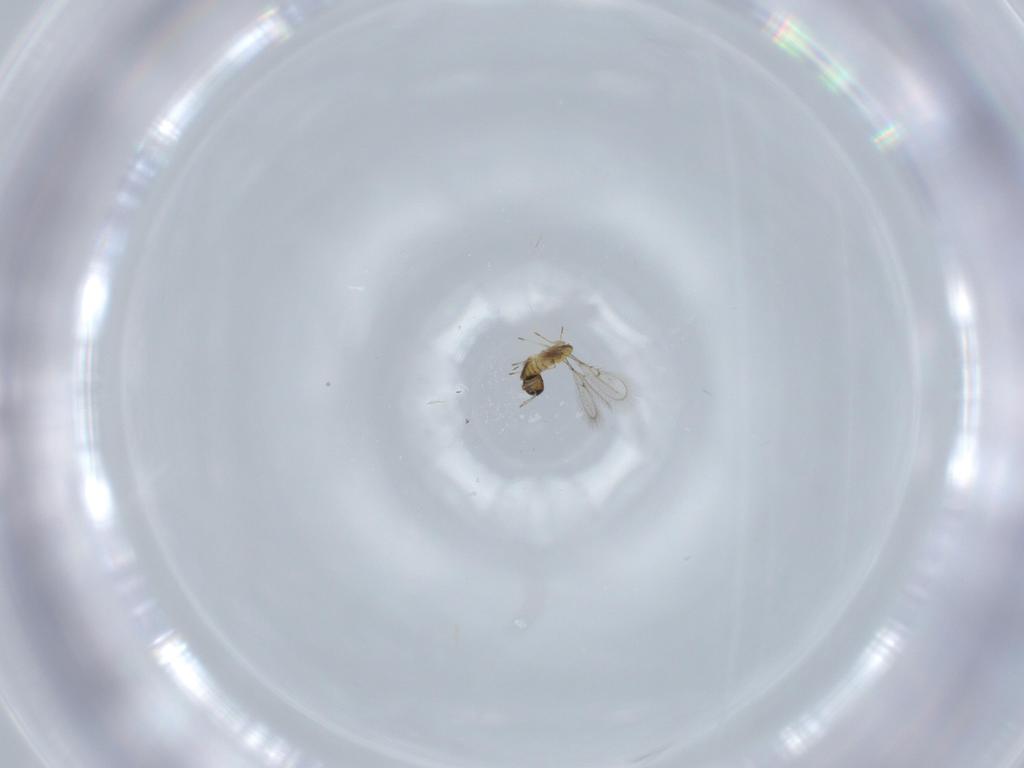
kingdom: Animalia
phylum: Arthropoda
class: Insecta
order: Hymenoptera
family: Trichogrammatidae
